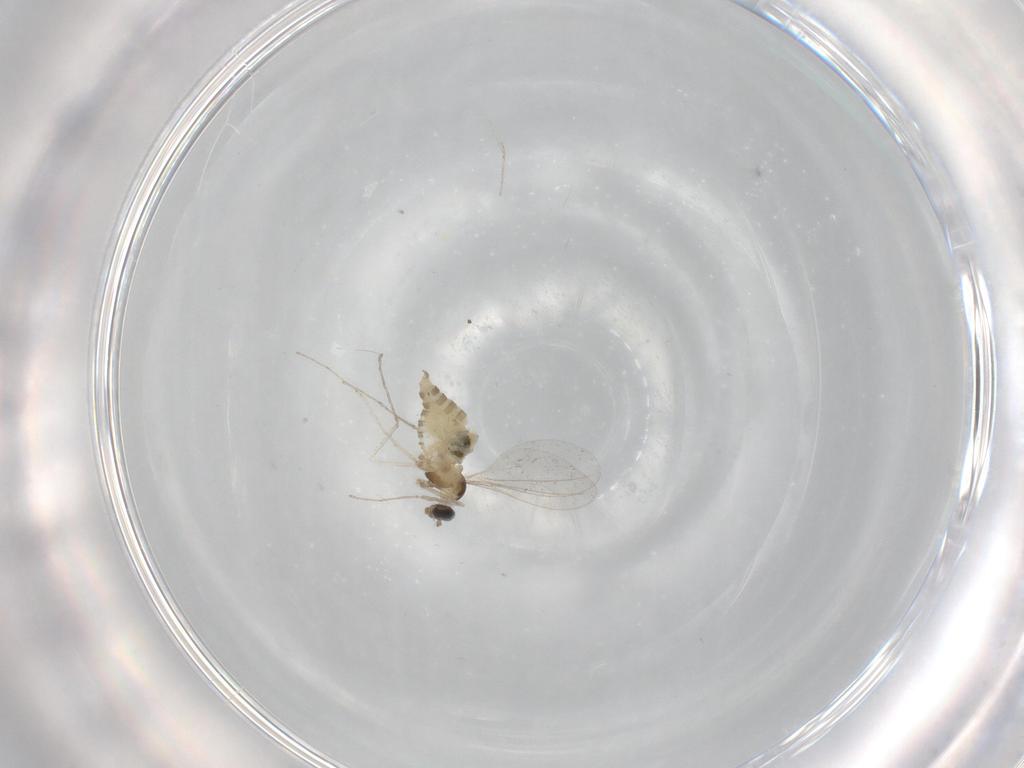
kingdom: Animalia
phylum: Arthropoda
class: Insecta
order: Diptera
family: Cecidomyiidae
